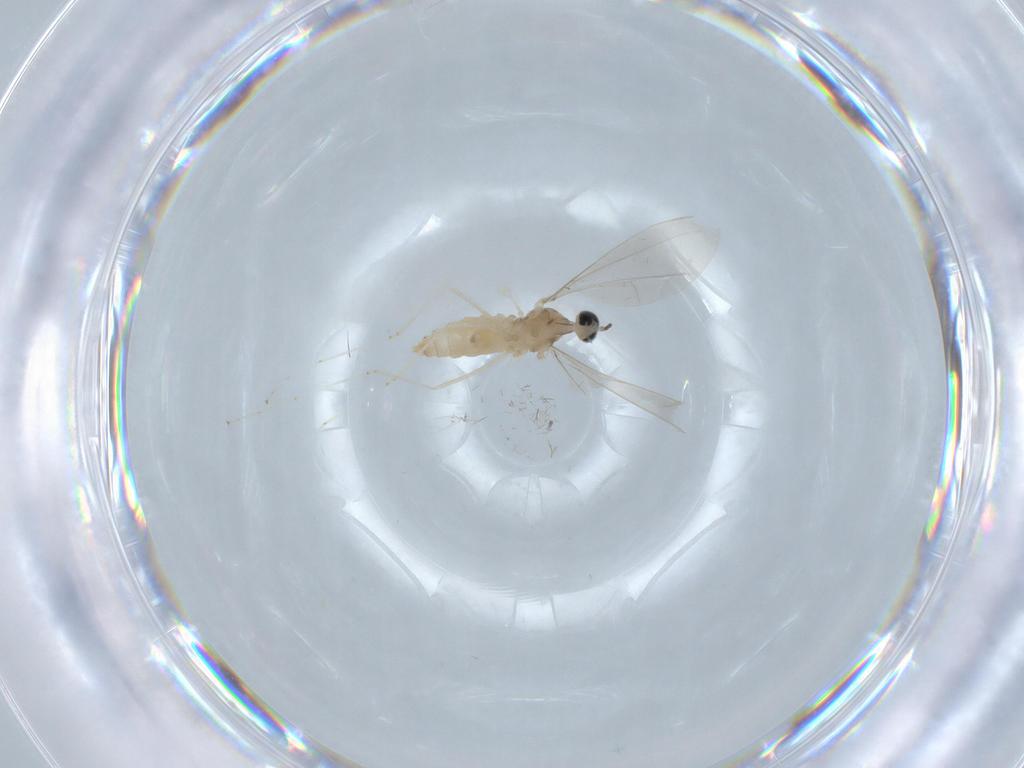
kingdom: Animalia
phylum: Arthropoda
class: Insecta
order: Diptera
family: Cecidomyiidae
